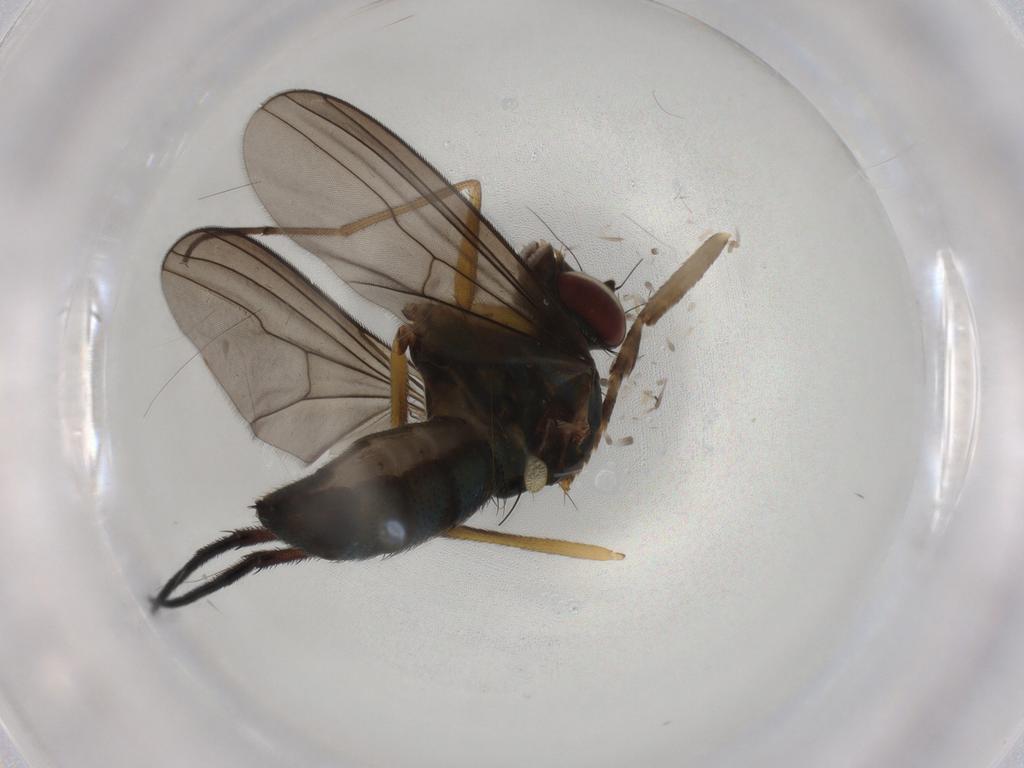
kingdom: Animalia
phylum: Arthropoda
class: Insecta
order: Diptera
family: Dolichopodidae
